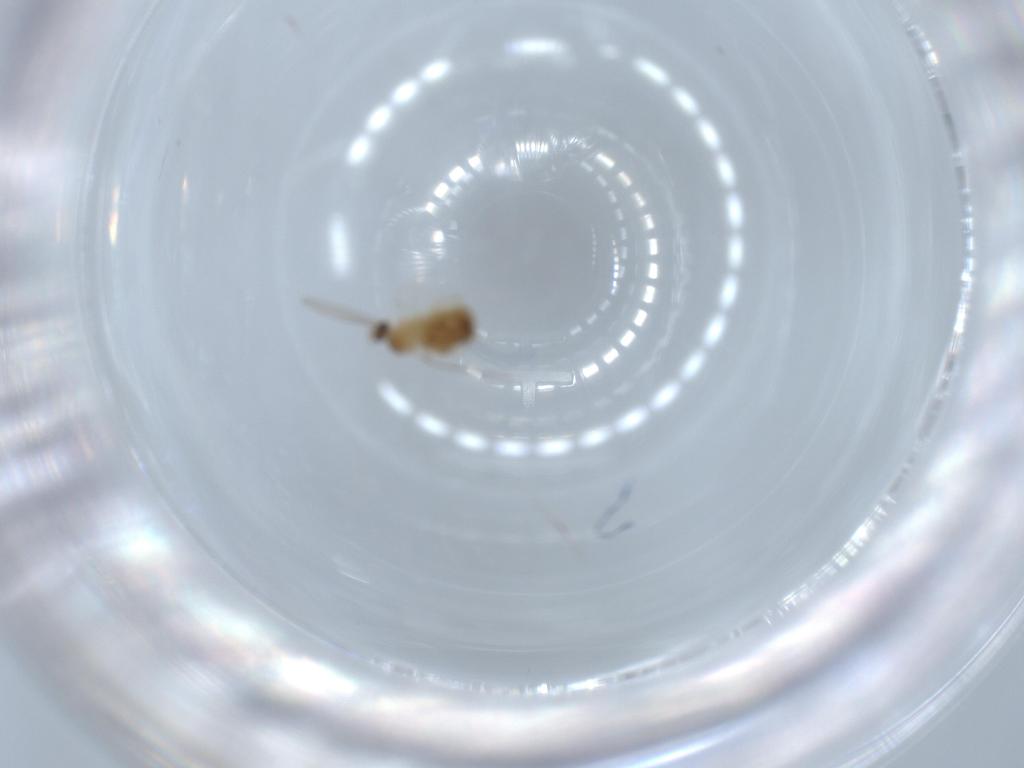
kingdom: Animalia
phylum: Arthropoda
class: Insecta
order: Diptera
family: Cecidomyiidae
